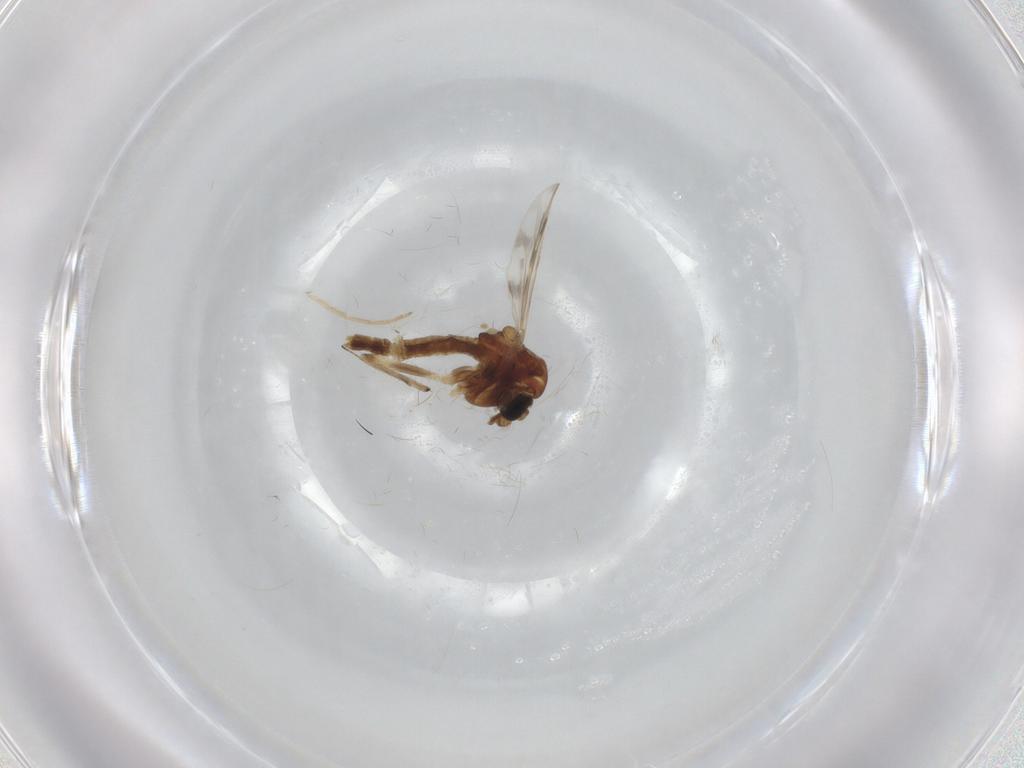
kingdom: Animalia
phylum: Arthropoda
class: Insecta
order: Diptera
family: Chironomidae
